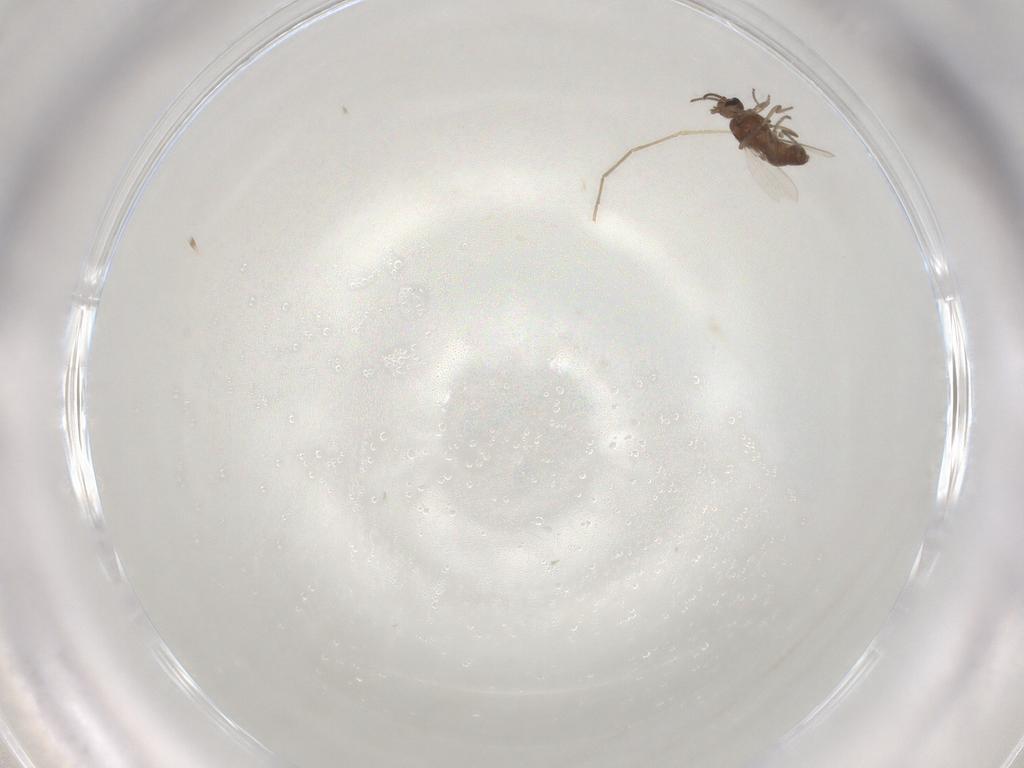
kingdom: Animalia
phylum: Arthropoda
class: Insecta
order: Diptera
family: Ceratopogonidae
